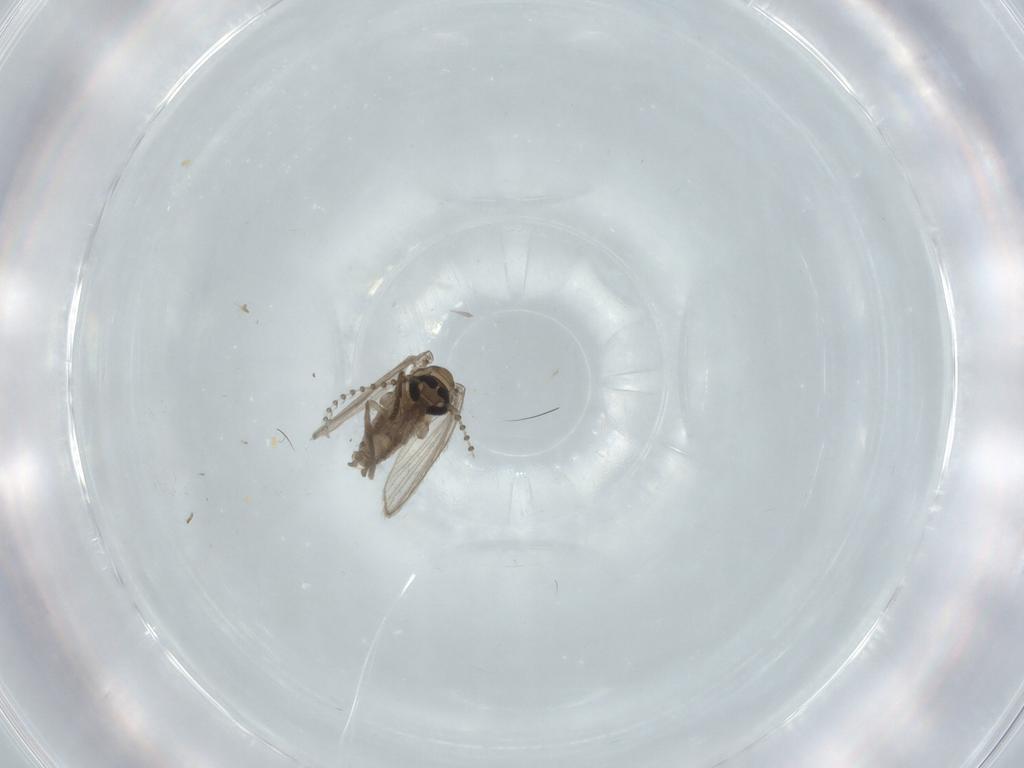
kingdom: Animalia
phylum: Arthropoda
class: Insecta
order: Diptera
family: Psychodidae
